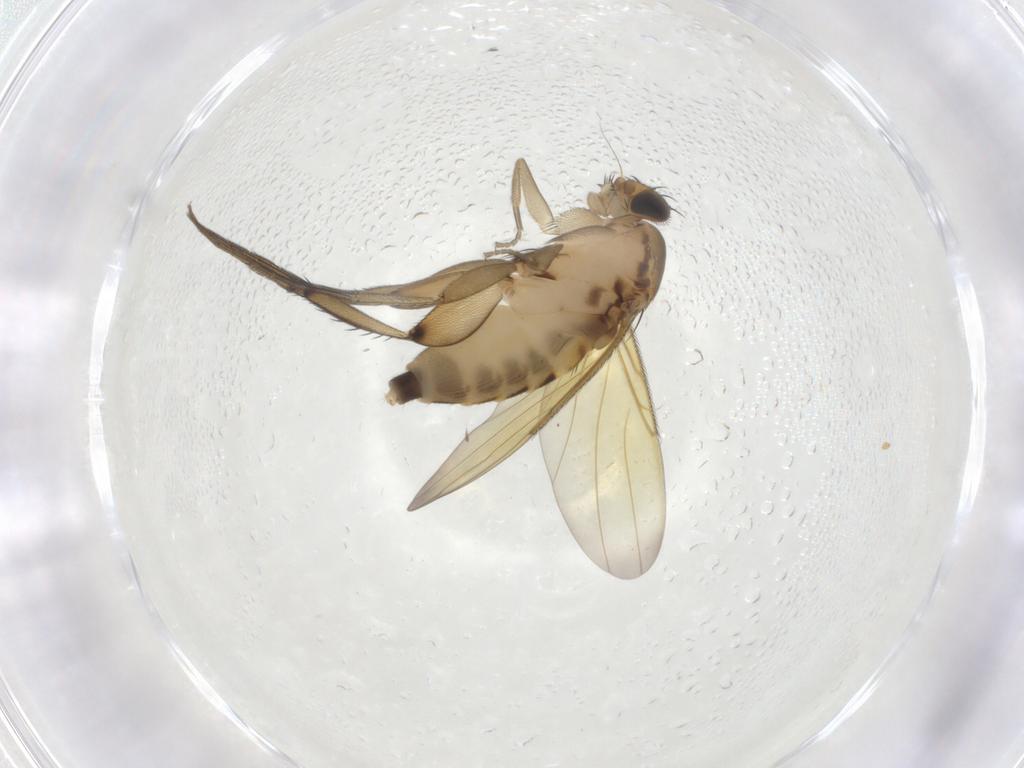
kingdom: Animalia
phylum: Arthropoda
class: Insecta
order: Diptera
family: Phoridae
